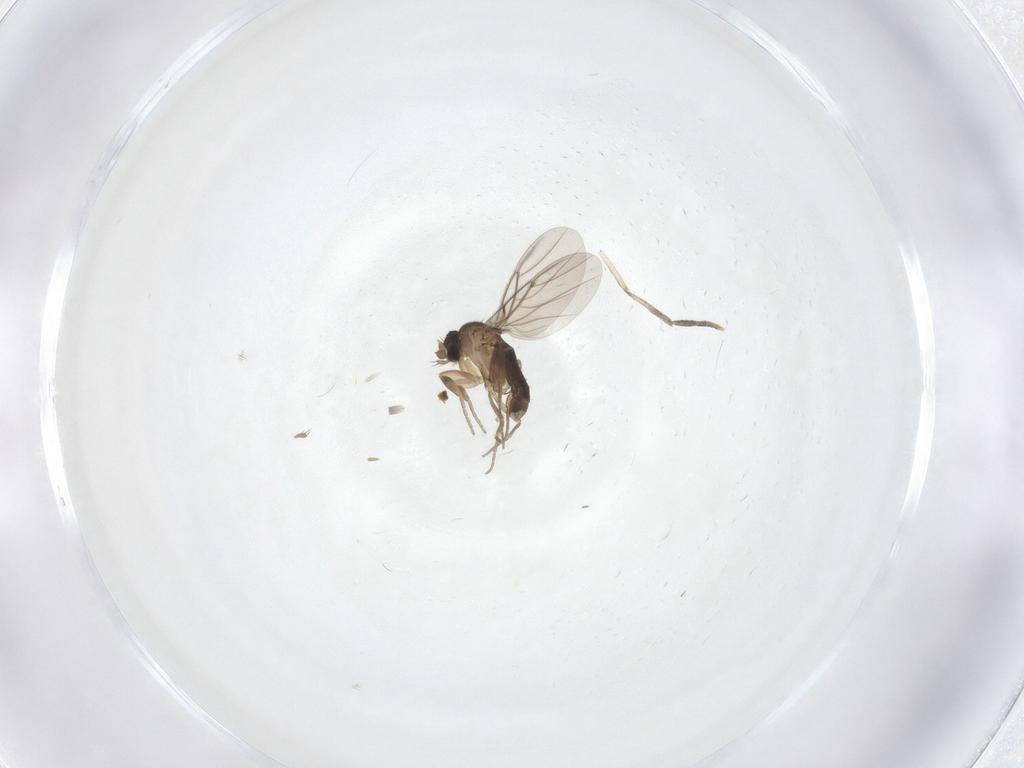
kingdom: Animalia
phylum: Arthropoda
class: Insecta
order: Diptera
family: Phoridae
